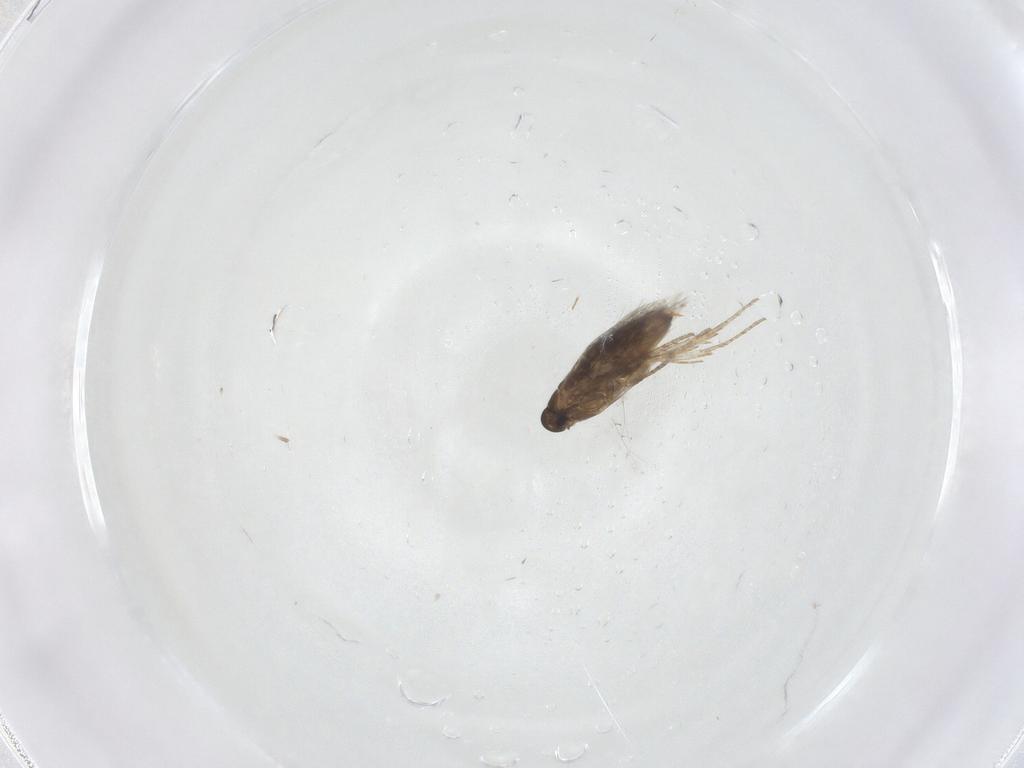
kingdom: Animalia
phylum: Arthropoda
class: Insecta
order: Lepidoptera
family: Heliozelidae
